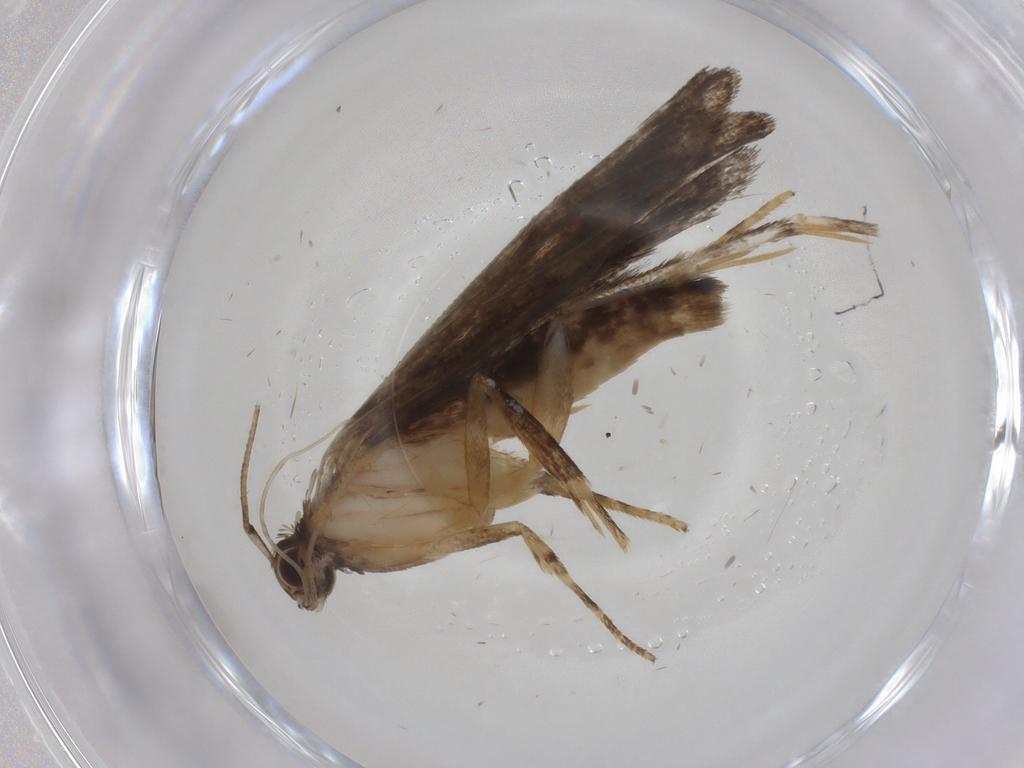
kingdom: Animalia
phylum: Arthropoda
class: Insecta
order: Lepidoptera
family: Gelechiidae
